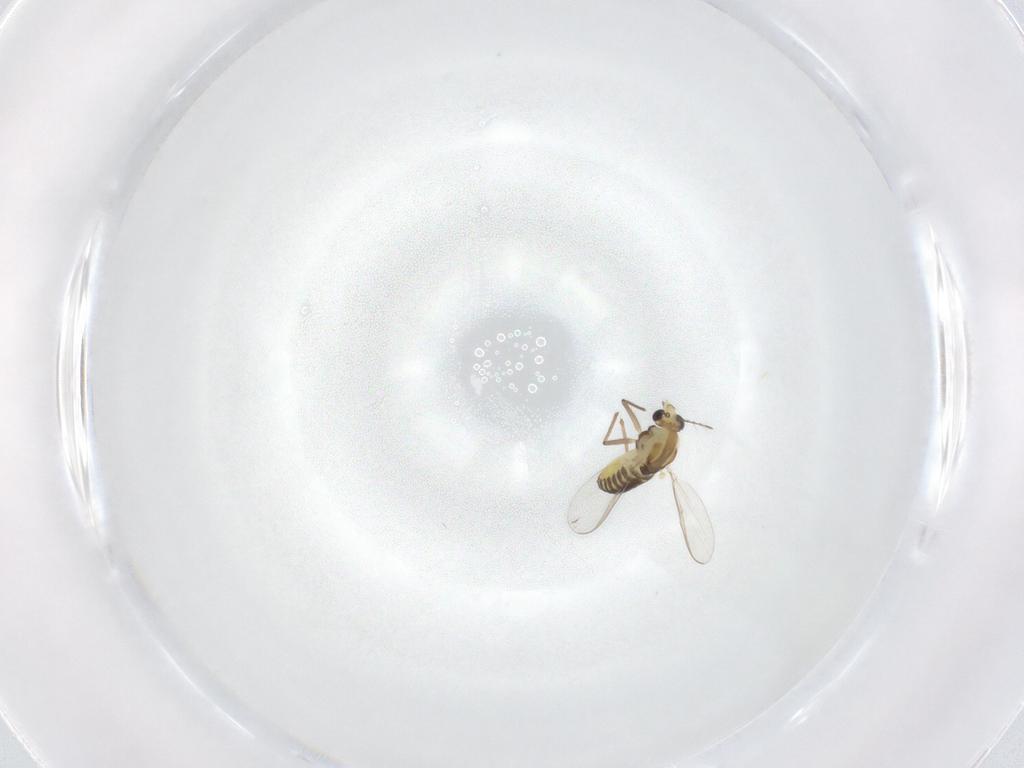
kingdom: Animalia
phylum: Arthropoda
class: Insecta
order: Diptera
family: Chironomidae
